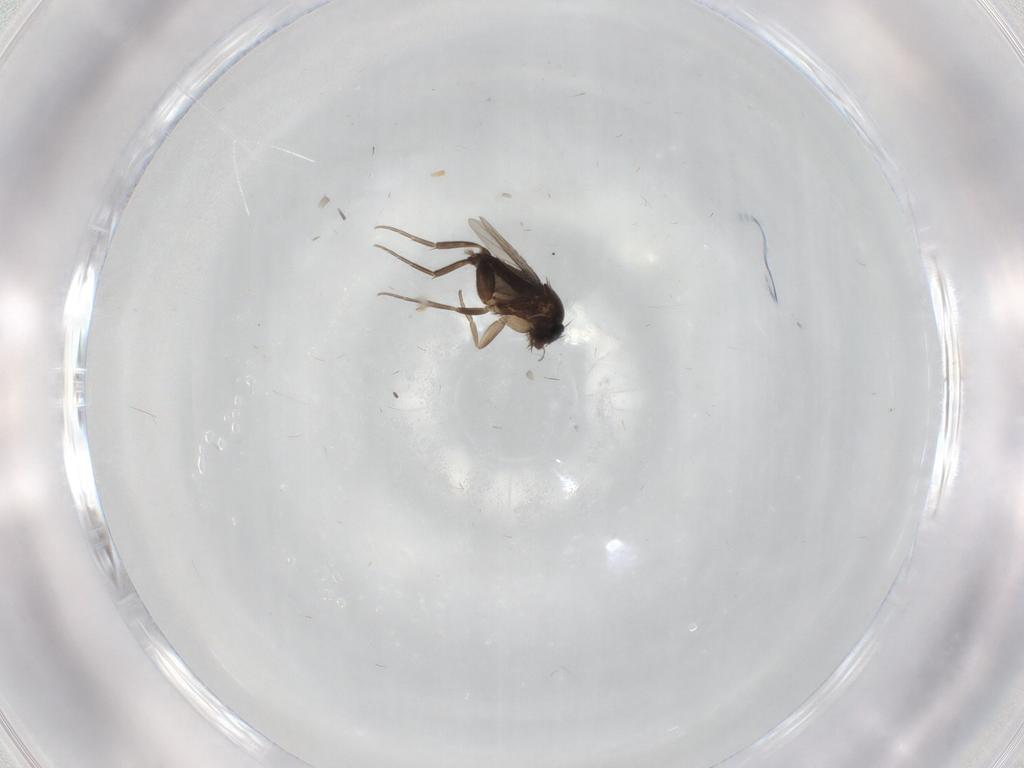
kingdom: Animalia
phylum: Arthropoda
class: Insecta
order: Diptera
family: Phoridae
